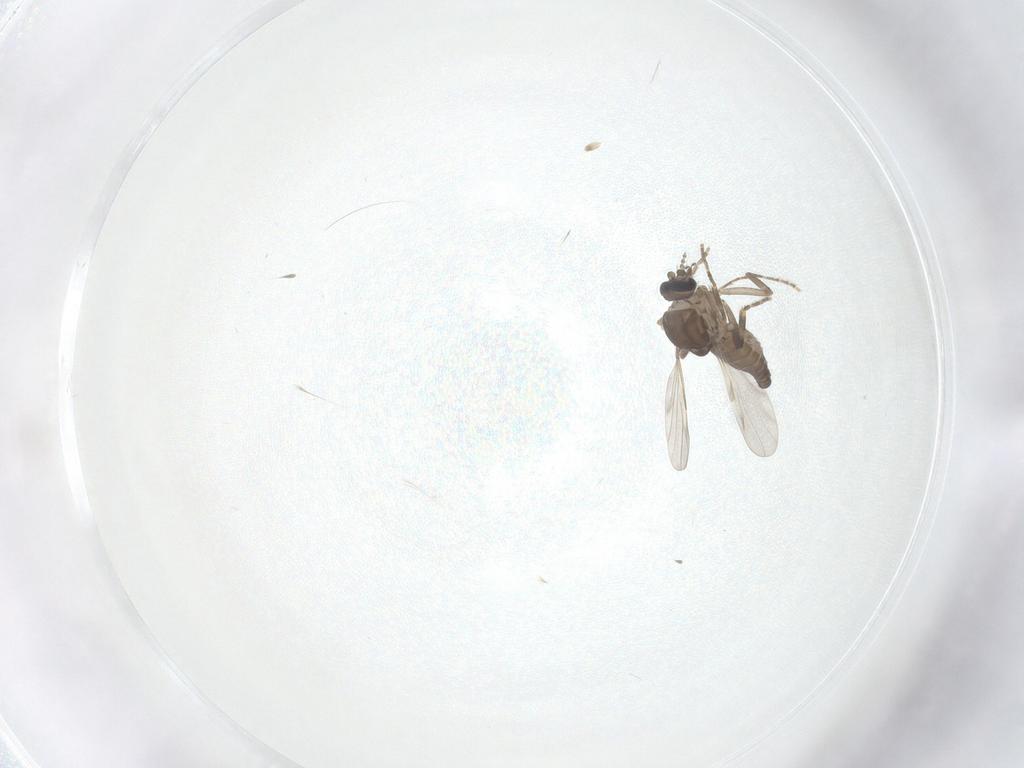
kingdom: Animalia
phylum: Arthropoda
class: Insecta
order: Diptera
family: Ceratopogonidae
